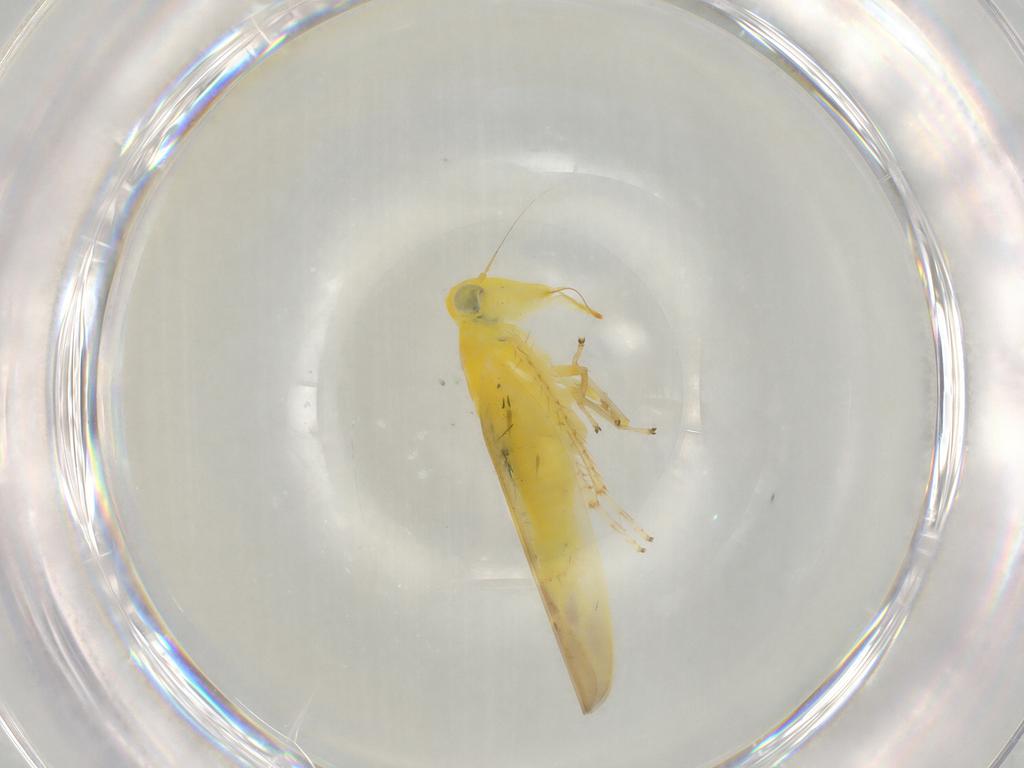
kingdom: Animalia
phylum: Arthropoda
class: Insecta
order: Hemiptera
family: Cicadellidae
